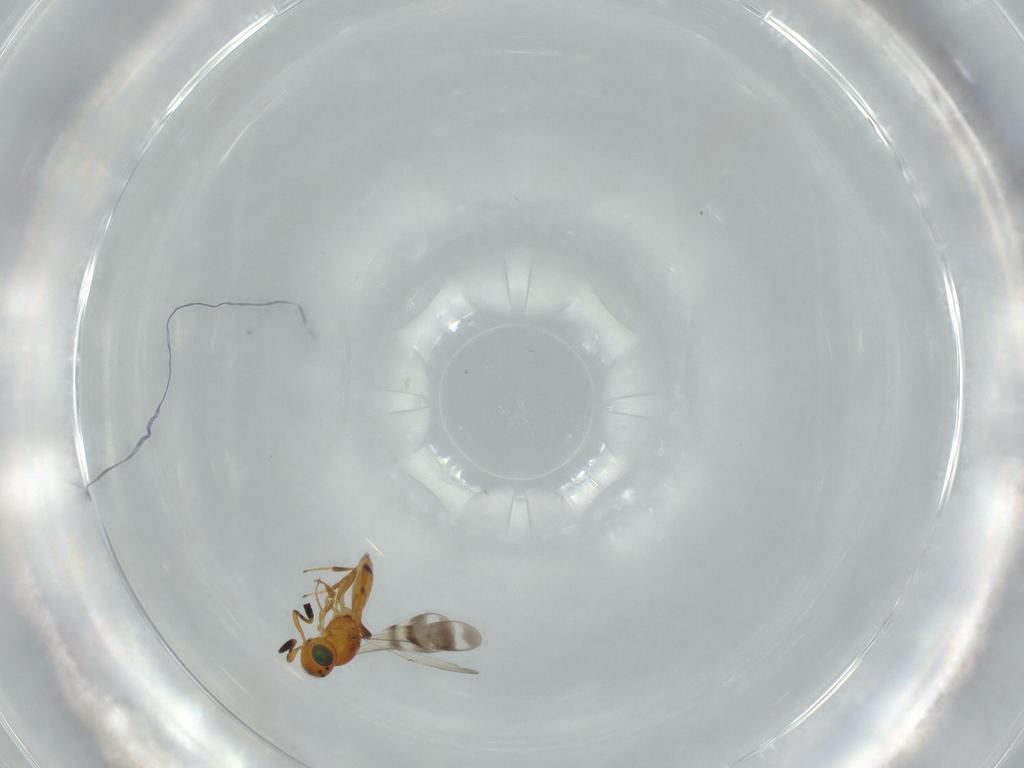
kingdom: Animalia
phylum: Arthropoda
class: Insecta
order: Hymenoptera
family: Scelionidae
